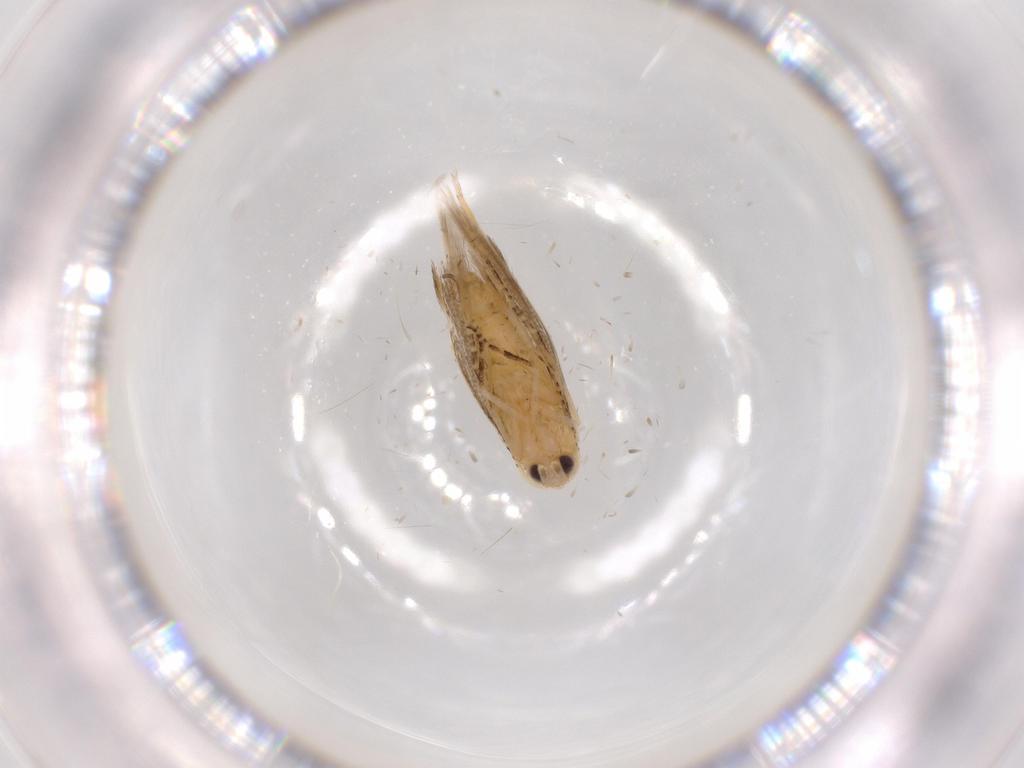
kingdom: Animalia
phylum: Arthropoda
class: Insecta
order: Lepidoptera
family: Bucculatricidae
